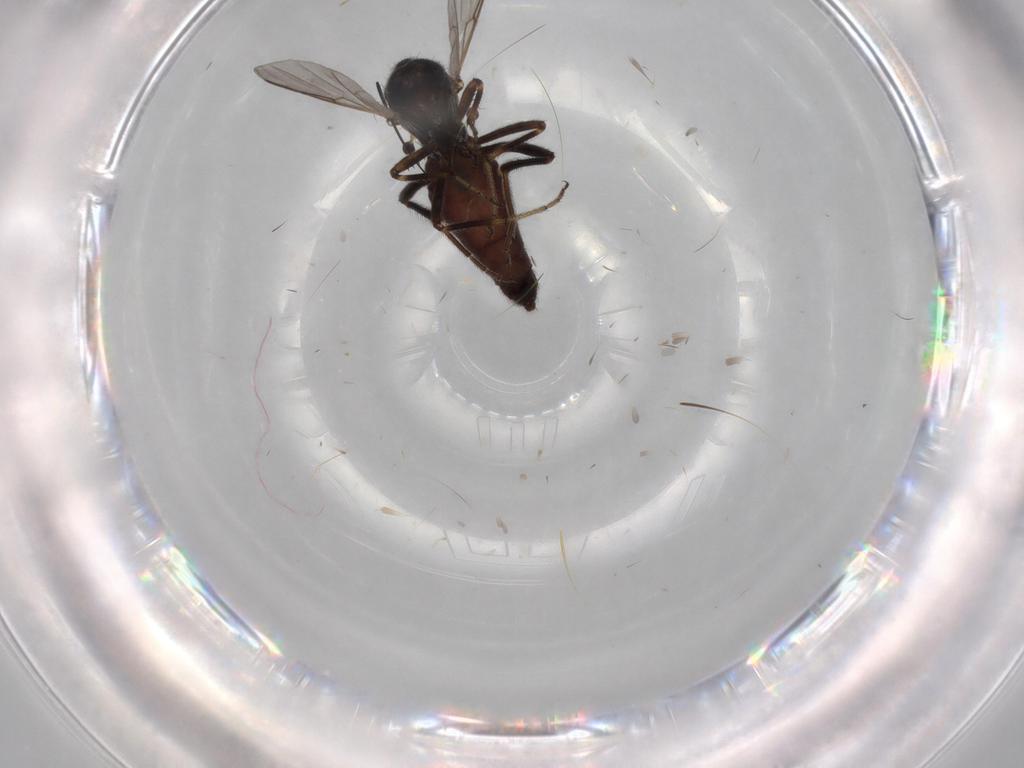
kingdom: Animalia
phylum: Arthropoda
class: Insecta
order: Diptera
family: Ceratopogonidae
